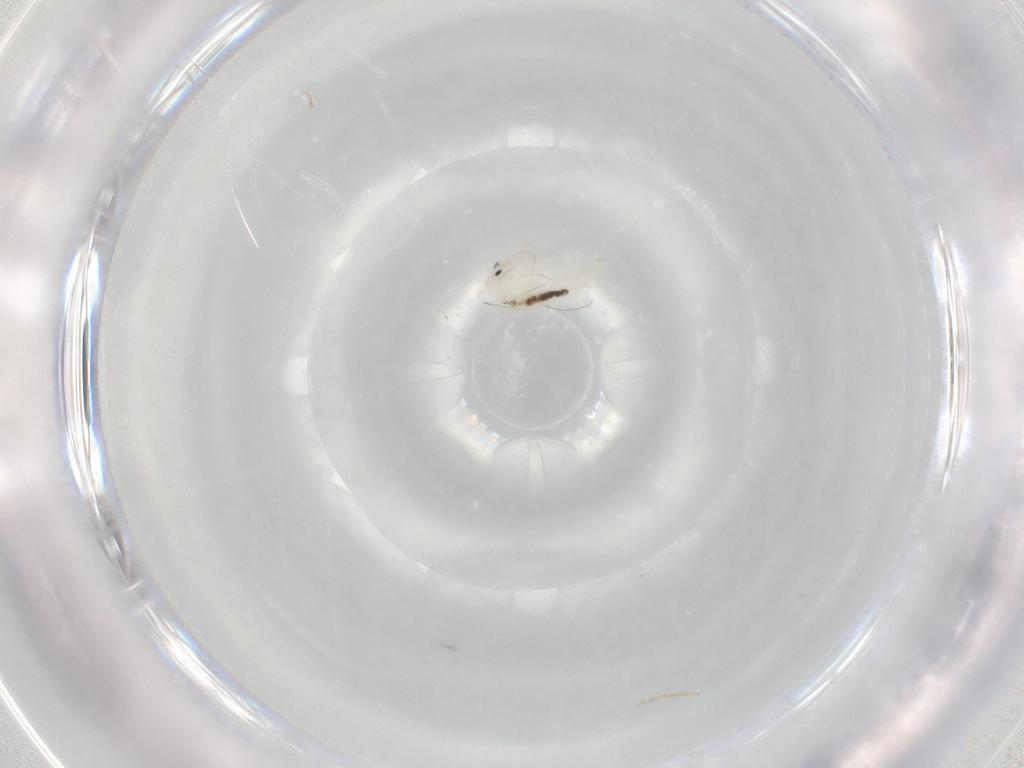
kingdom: Animalia
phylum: Arthropoda
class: Collembola
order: Entomobryomorpha
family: Entomobryidae
